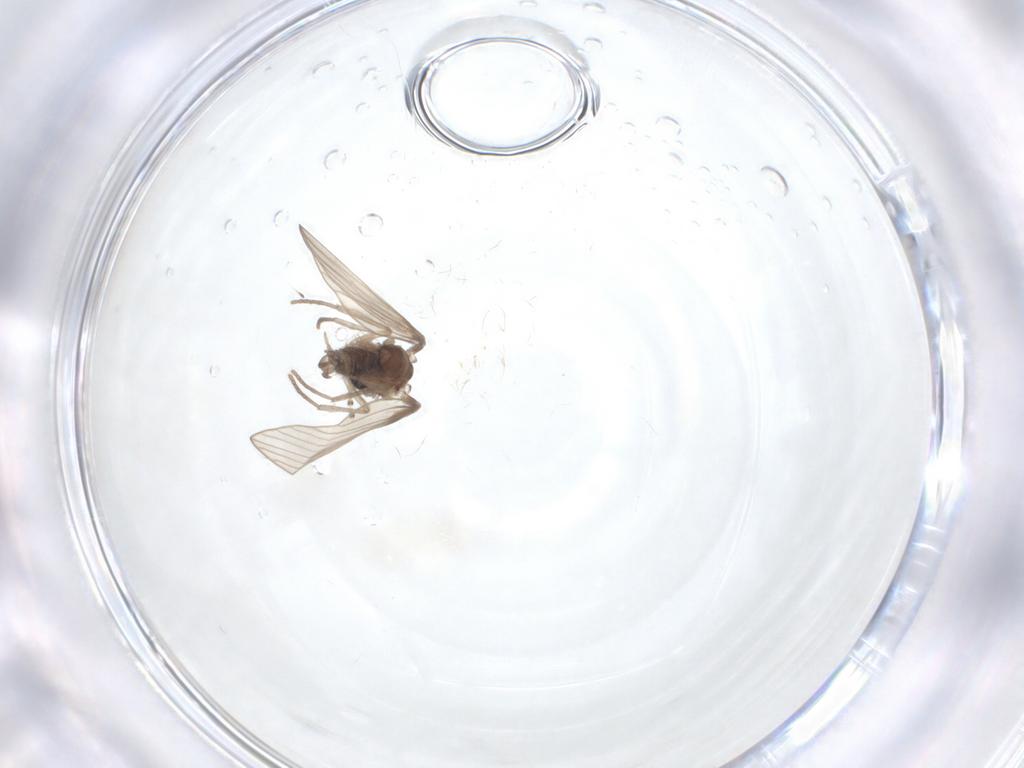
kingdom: Animalia
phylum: Arthropoda
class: Insecta
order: Diptera
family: Psychodidae
